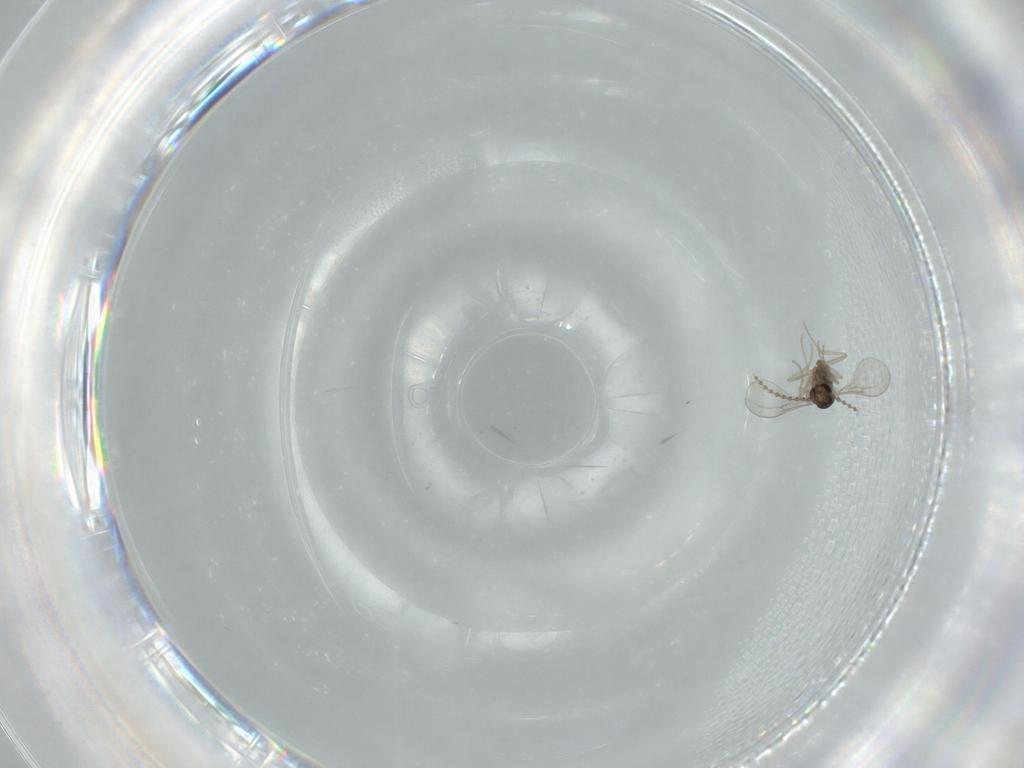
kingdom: Animalia
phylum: Arthropoda
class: Insecta
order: Diptera
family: Cecidomyiidae
